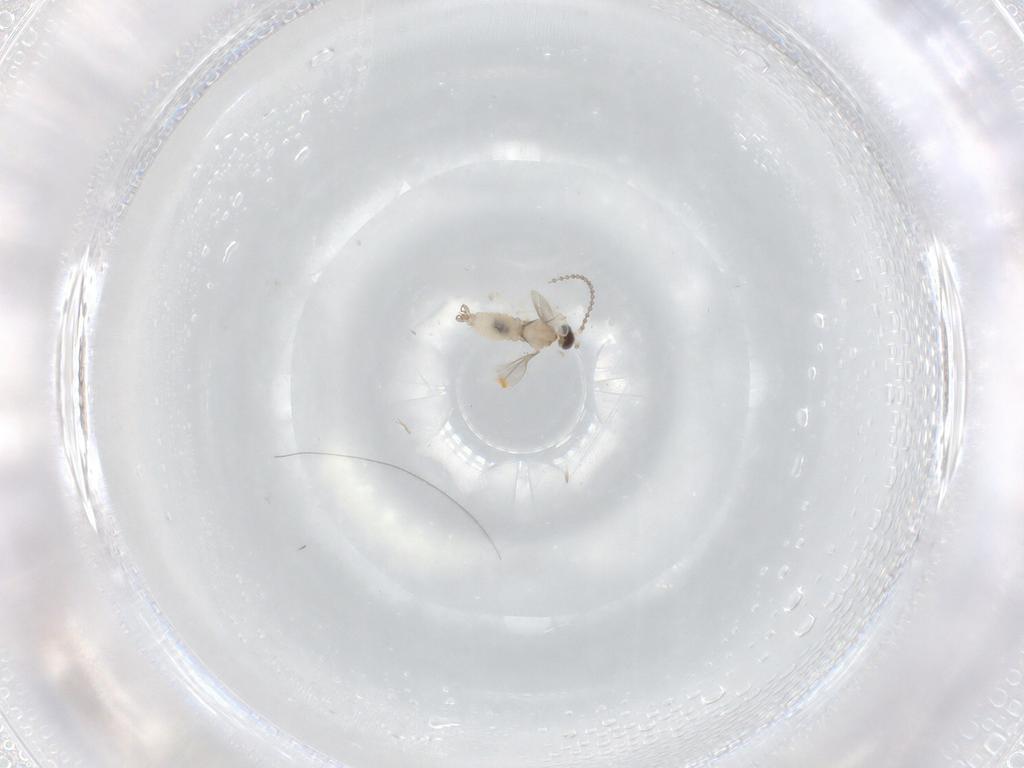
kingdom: Animalia
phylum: Arthropoda
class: Insecta
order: Diptera
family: Cecidomyiidae
